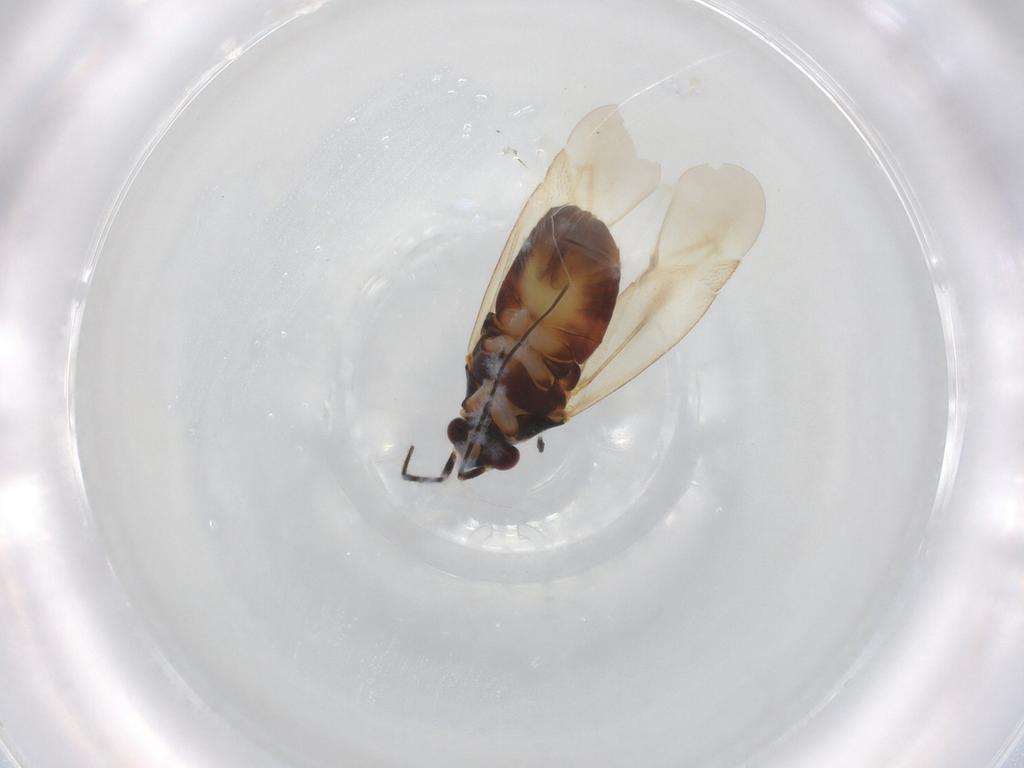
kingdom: Animalia
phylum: Arthropoda
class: Insecta
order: Hemiptera
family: Miridae
